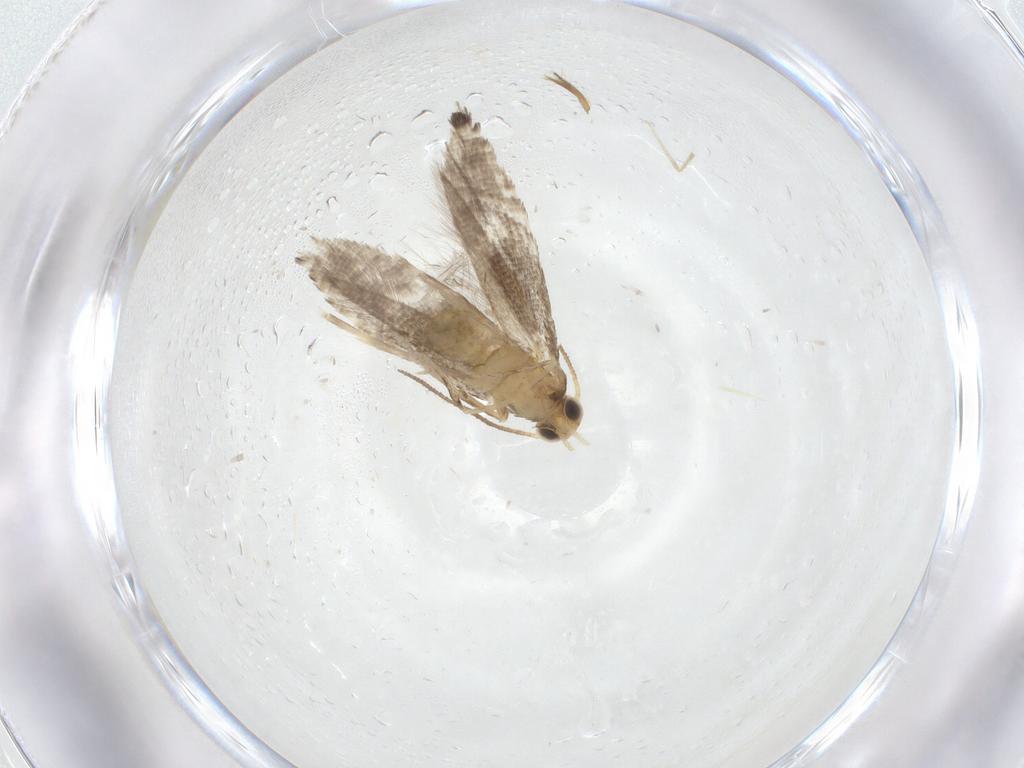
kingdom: Animalia
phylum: Arthropoda
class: Insecta
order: Lepidoptera
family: Glyphipterigidae
